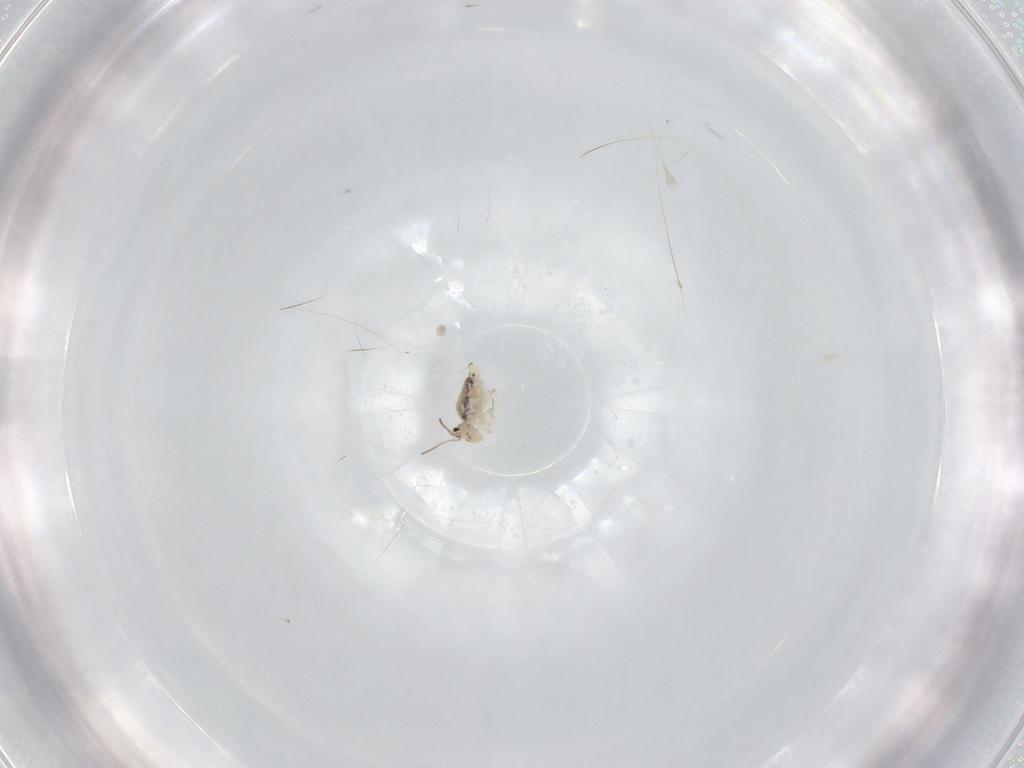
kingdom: Animalia
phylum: Arthropoda
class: Collembola
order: Symphypleona
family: Bourletiellidae
